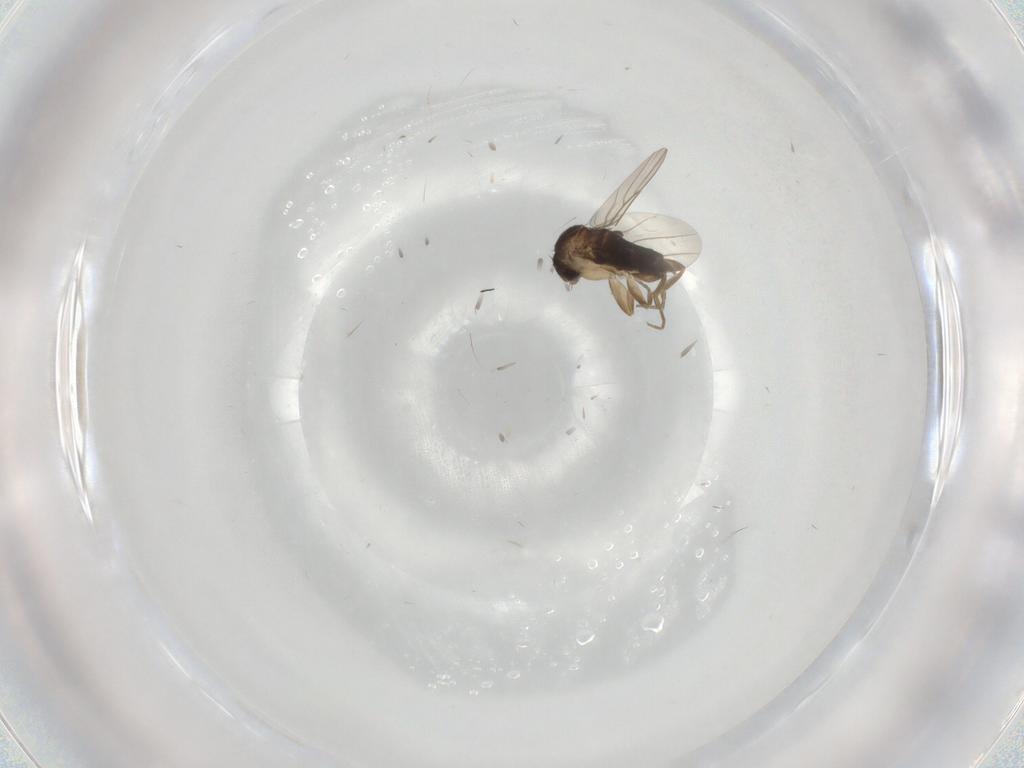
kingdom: Animalia
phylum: Arthropoda
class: Insecta
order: Diptera
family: Phoridae
